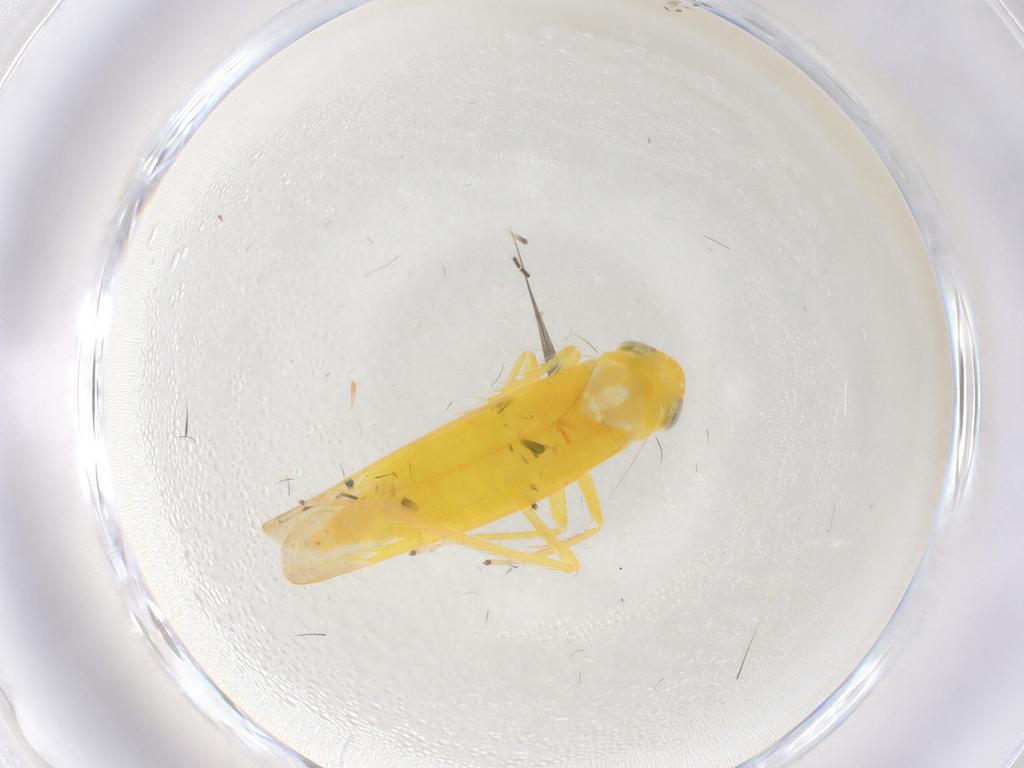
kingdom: Animalia
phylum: Arthropoda
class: Insecta
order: Hemiptera
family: Cicadellidae
